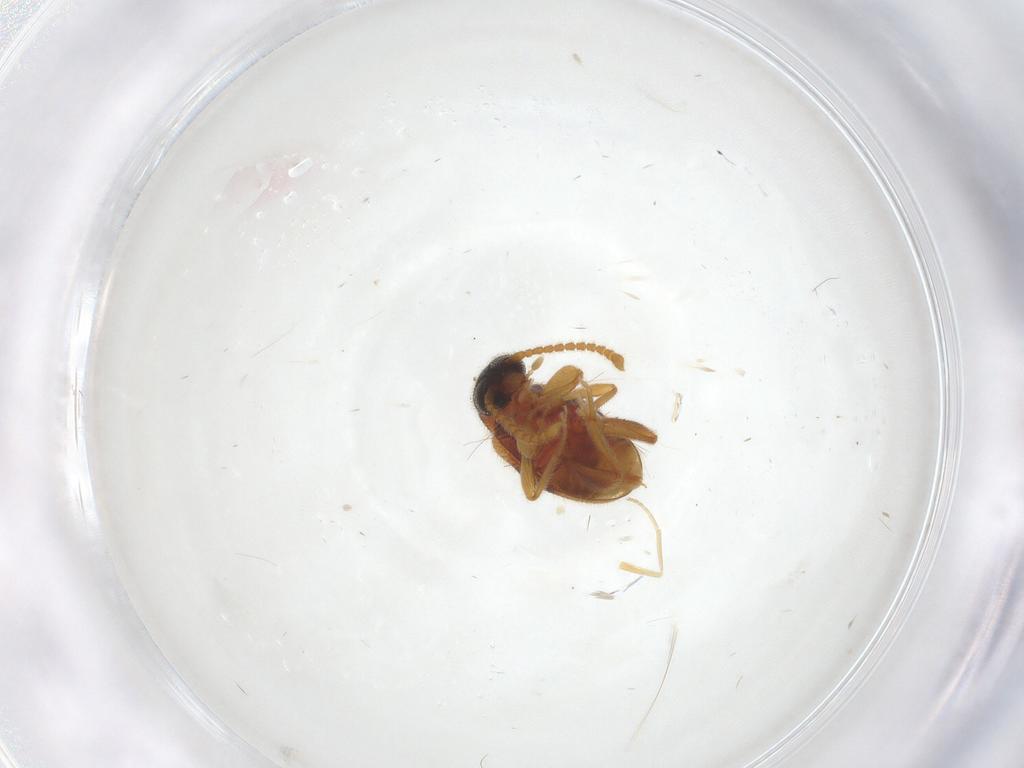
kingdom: Animalia
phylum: Arthropoda
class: Insecta
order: Coleoptera
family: Aderidae
